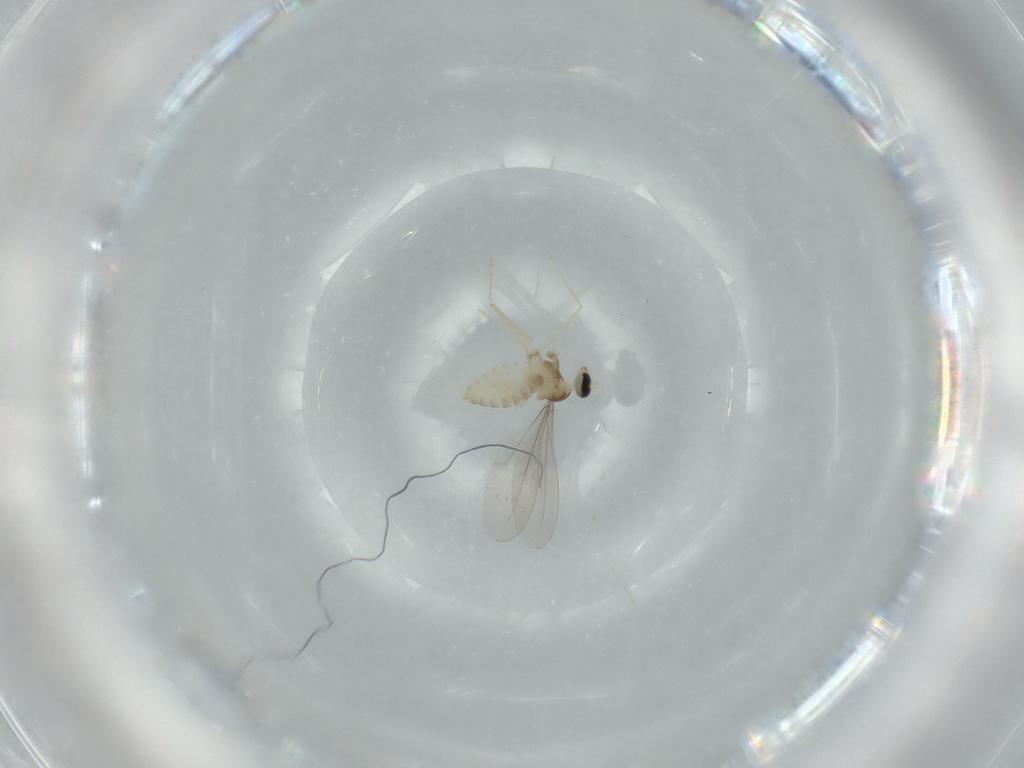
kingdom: Animalia
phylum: Arthropoda
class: Insecta
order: Diptera
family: Cecidomyiidae
